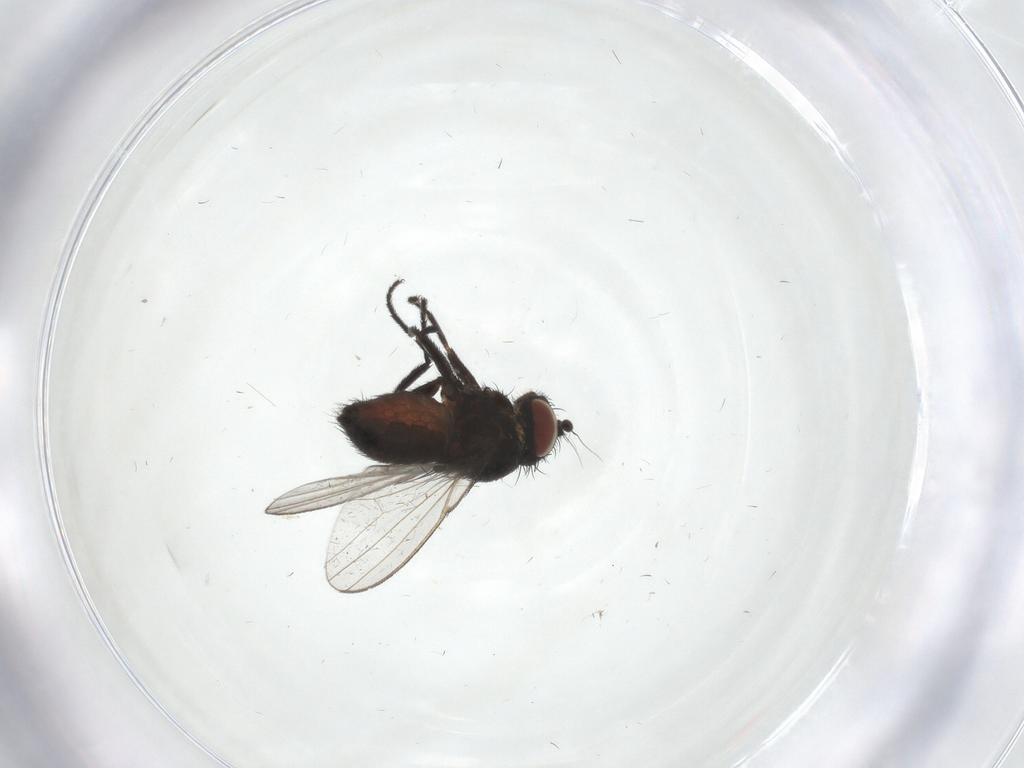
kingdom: Animalia
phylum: Arthropoda
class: Insecta
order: Diptera
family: Milichiidae
